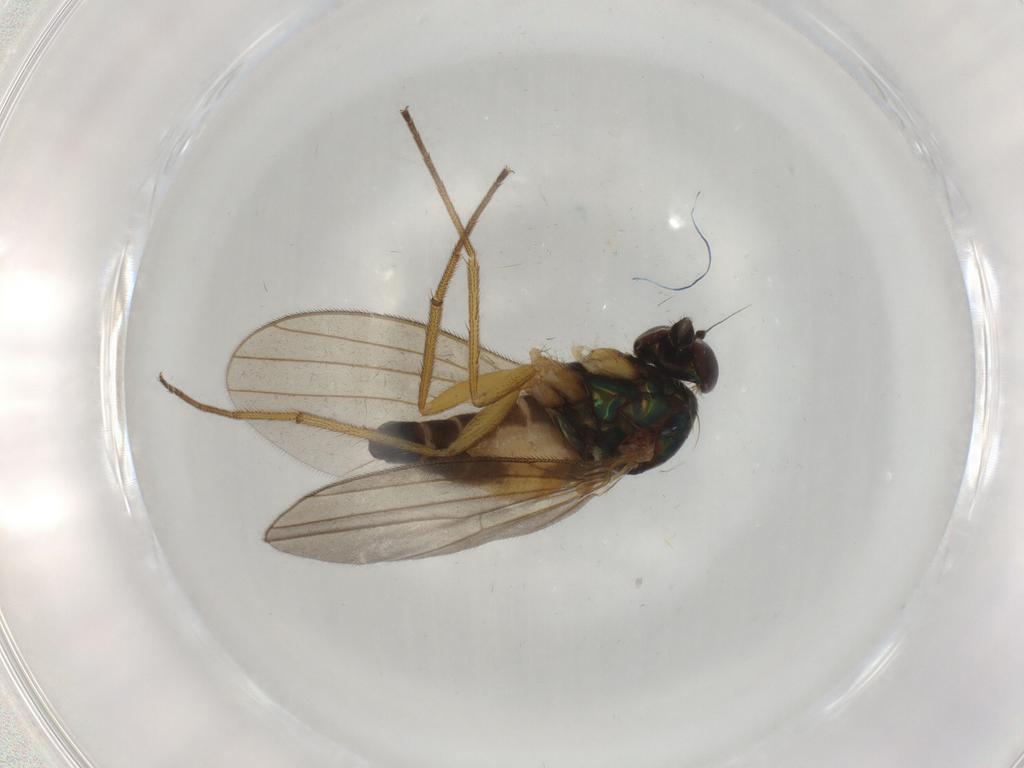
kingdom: Animalia
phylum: Arthropoda
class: Insecta
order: Diptera
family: Dolichopodidae
